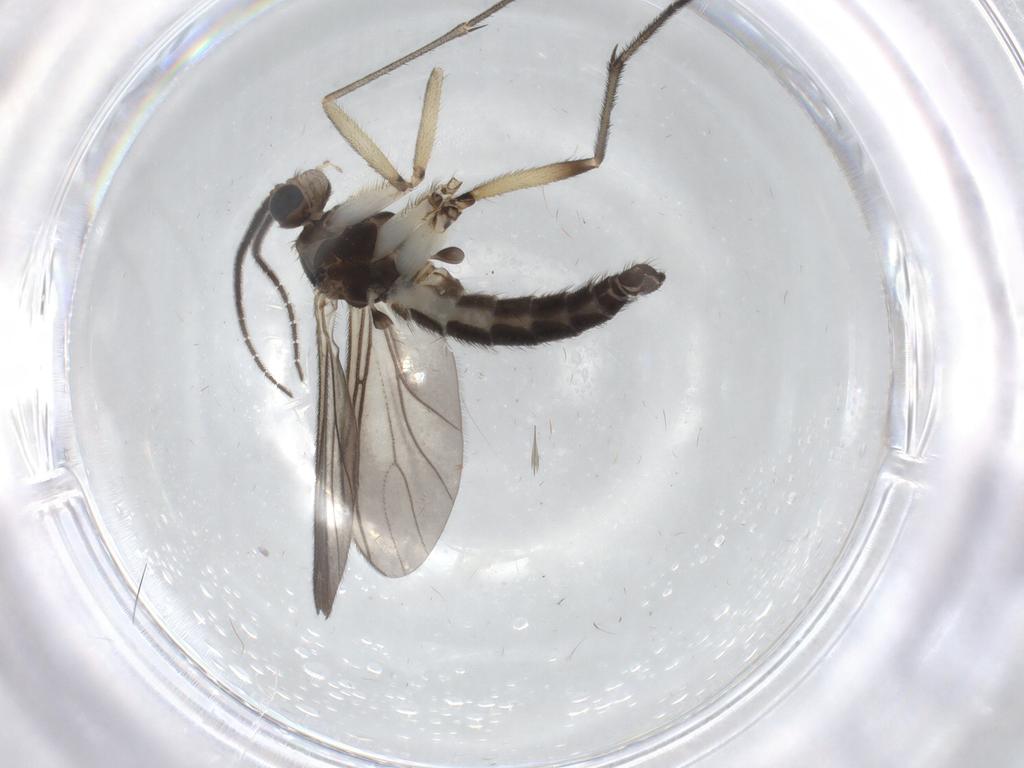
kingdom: Animalia
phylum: Arthropoda
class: Insecta
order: Diptera
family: Sciaridae
